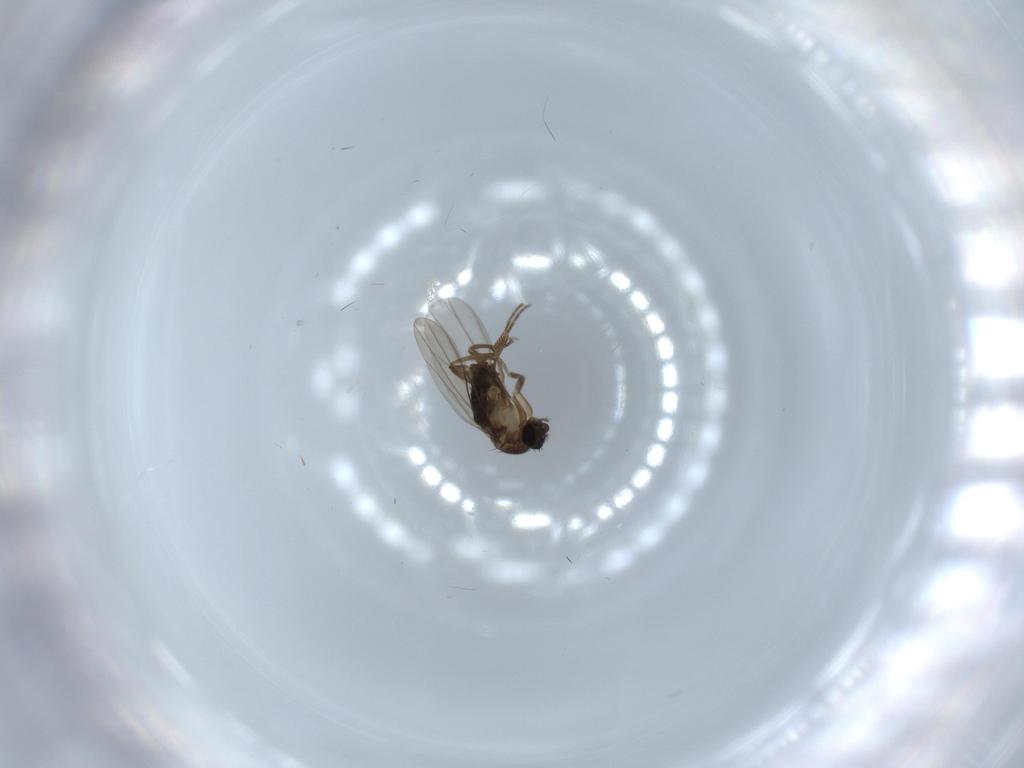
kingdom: Animalia
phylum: Arthropoda
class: Insecta
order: Diptera
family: Phoridae
